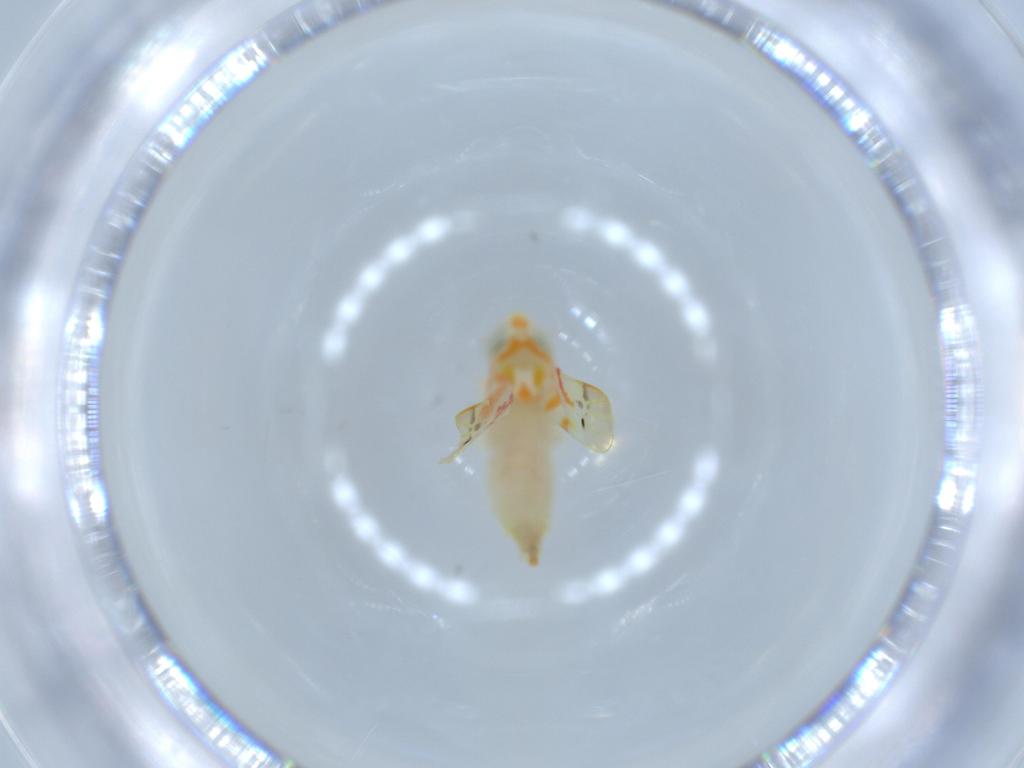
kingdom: Animalia
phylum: Arthropoda
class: Insecta
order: Hemiptera
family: Cicadellidae
